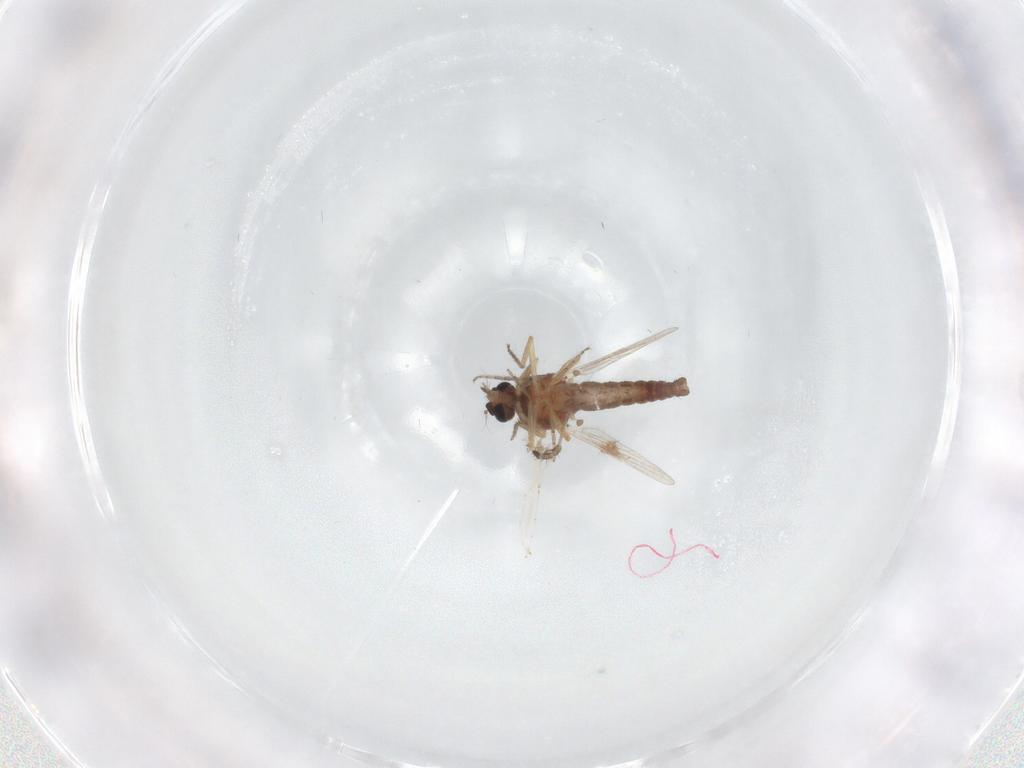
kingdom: Animalia
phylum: Arthropoda
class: Insecta
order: Diptera
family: Ceratopogonidae
